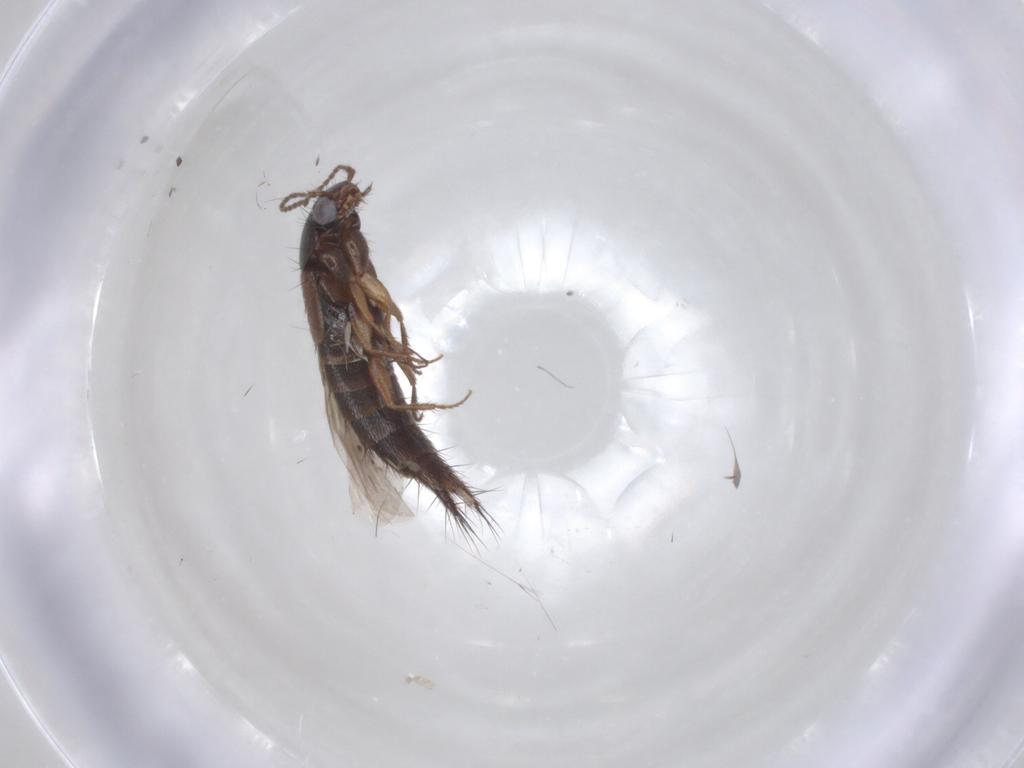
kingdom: Animalia
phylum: Arthropoda
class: Insecta
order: Coleoptera
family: Staphylinidae
